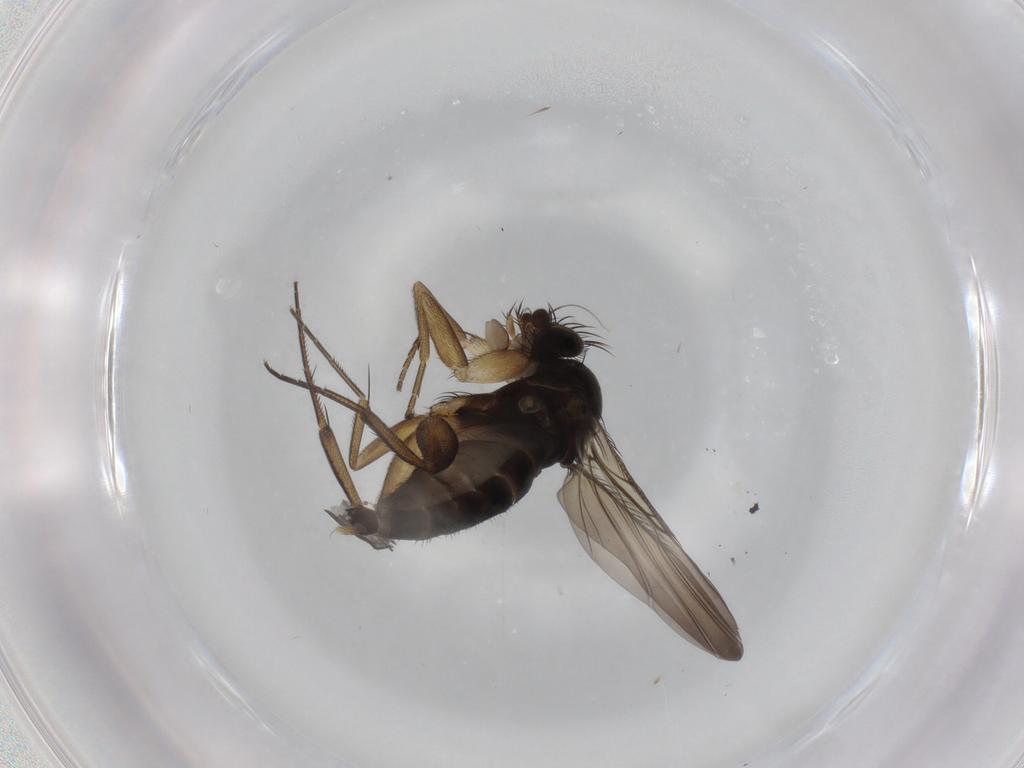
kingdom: Animalia
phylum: Arthropoda
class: Insecta
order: Diptera
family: Phoridae
